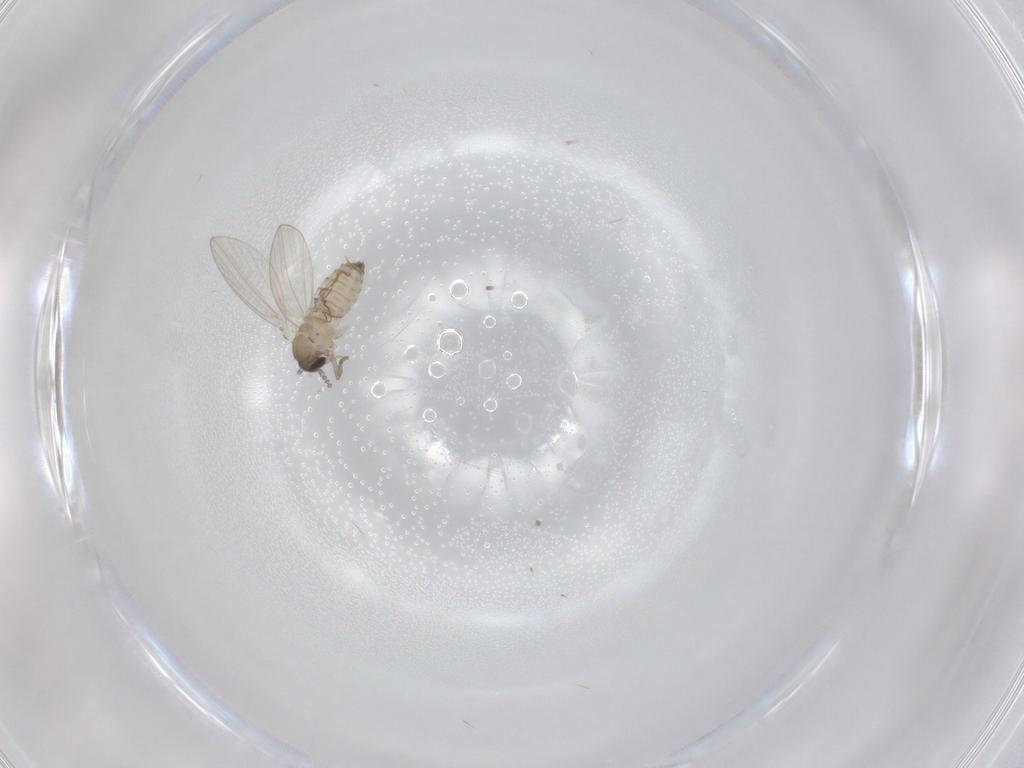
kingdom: Animalia
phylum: Arthropoda
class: Insecta
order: Diptera
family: Psychodidae
